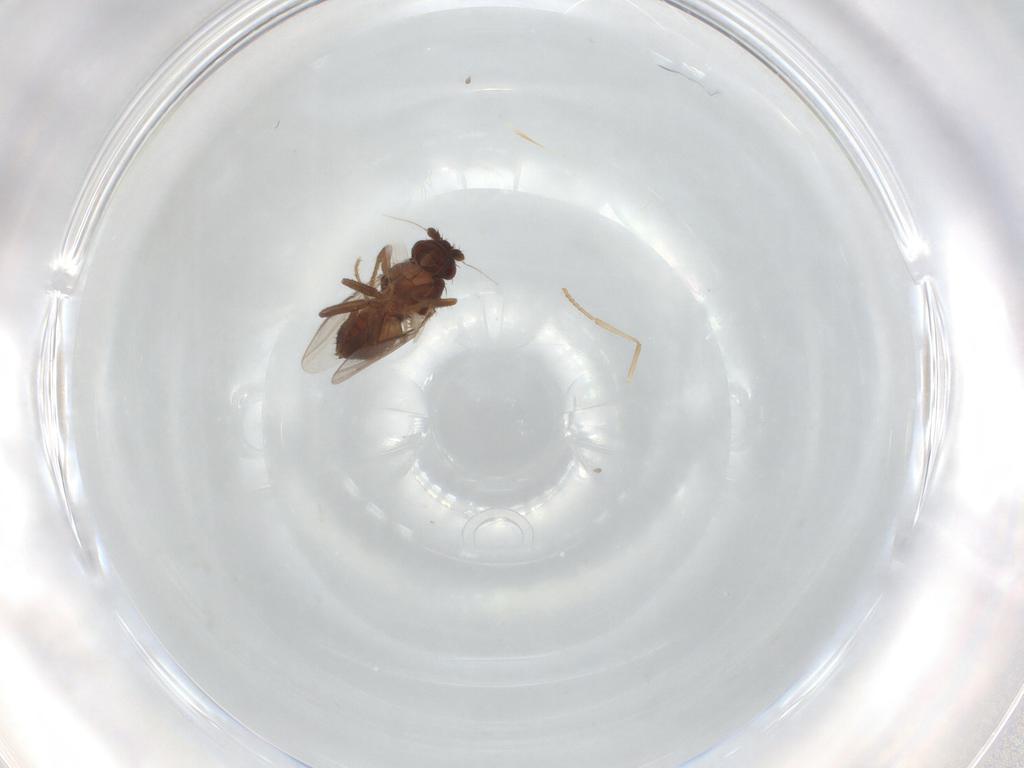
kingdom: Animalia
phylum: Arthropoda
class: Insecta
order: Diptera
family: Psychodidae
